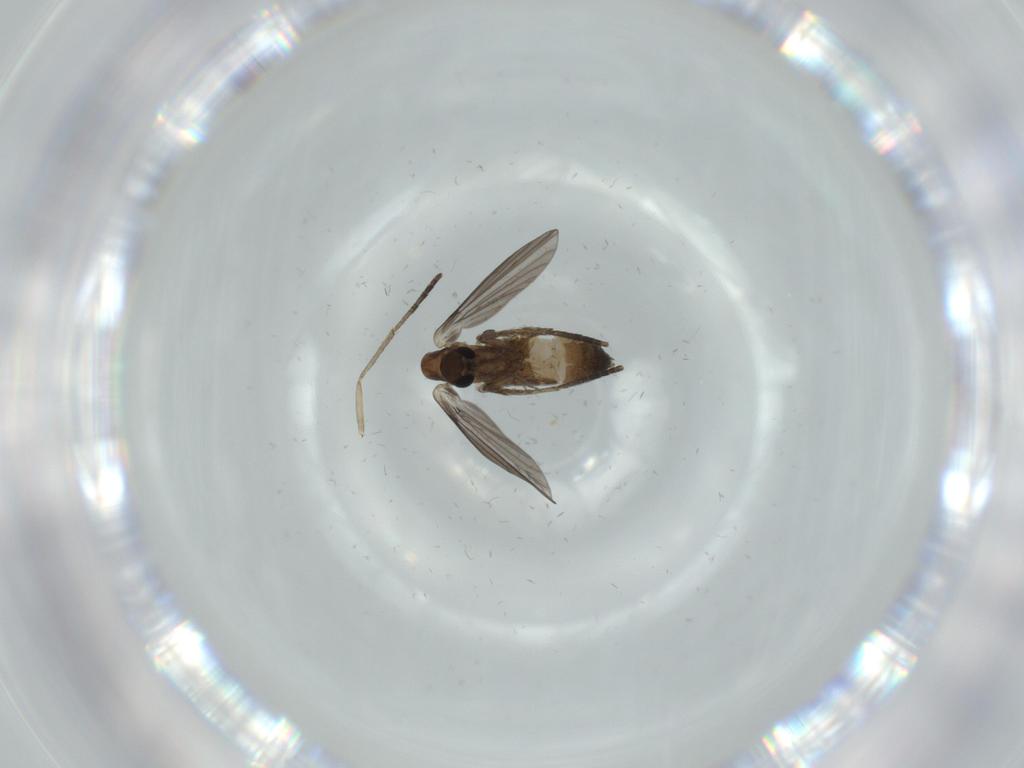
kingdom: Animalia
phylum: Arthropoda
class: Insecta
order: Diptera
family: Psychodidae
